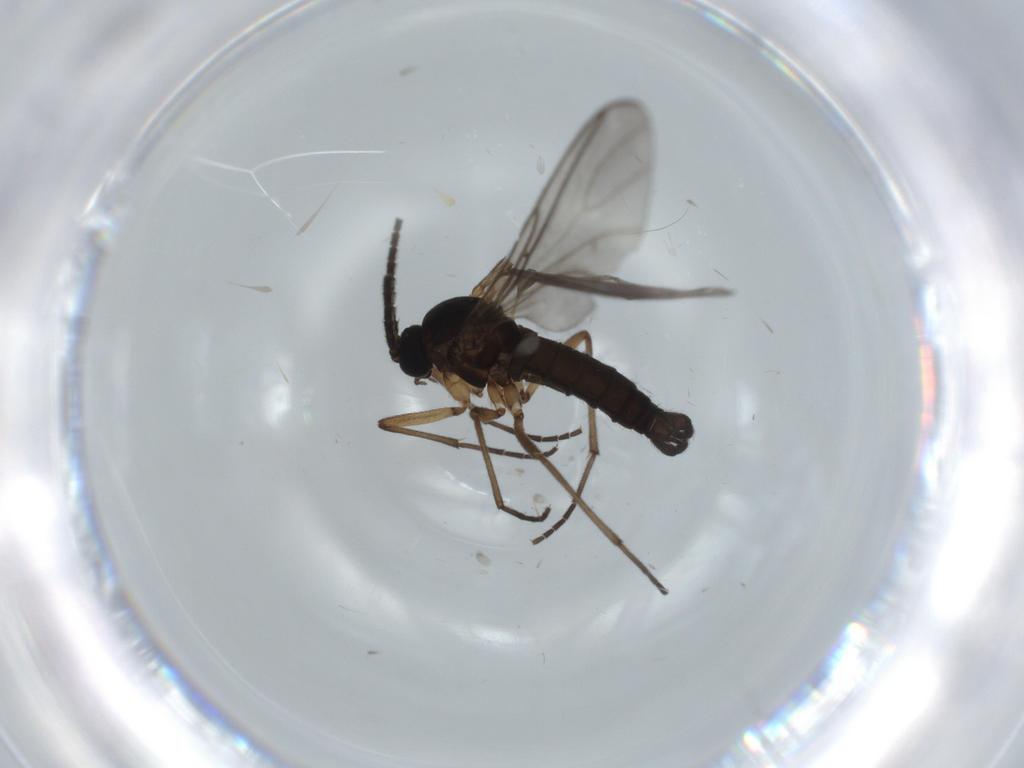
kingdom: Animalia
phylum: Arthropoda
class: Insecta
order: Diptera
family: Sciaridae
